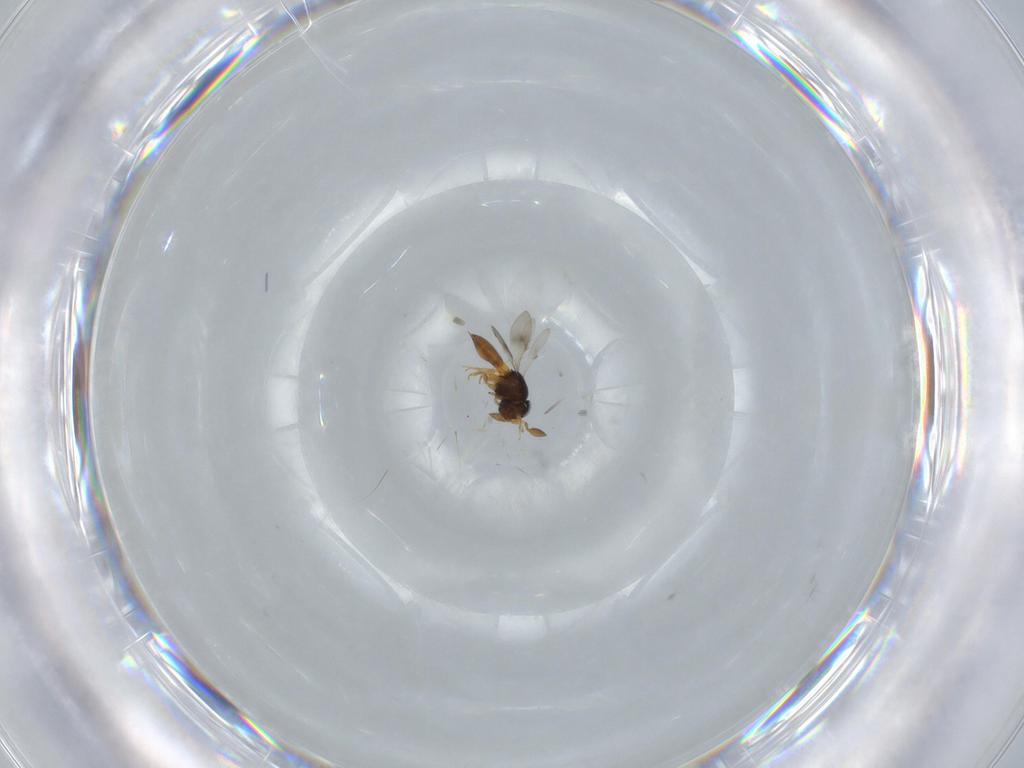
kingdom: Animalia
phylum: Arthropoda
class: Insecta
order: Hymenoptera
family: Scelionidae
